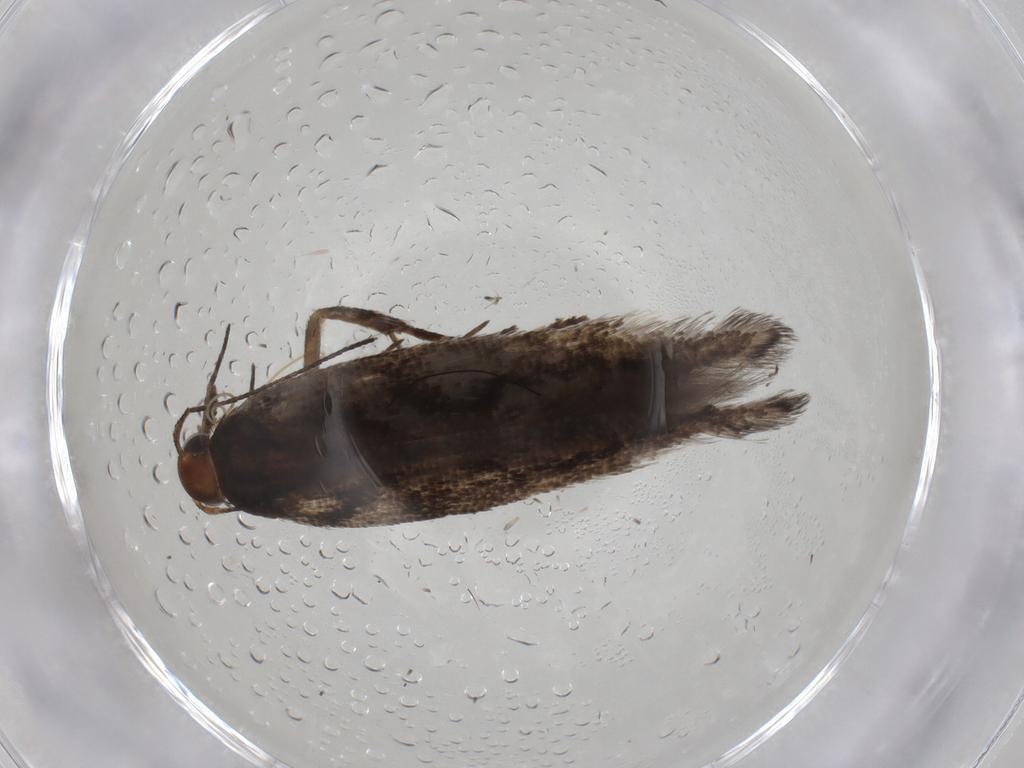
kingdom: Animalia
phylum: Arthropoda
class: Insecta
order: Lepidoptera
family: Gelechiidae
